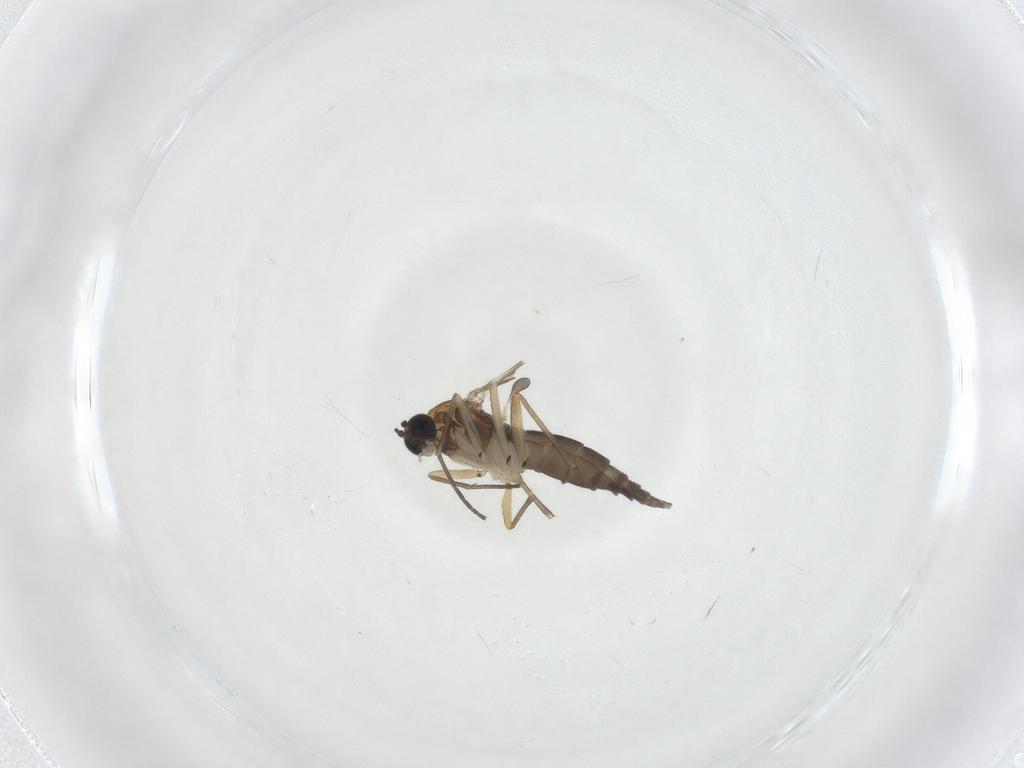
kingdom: Animalia
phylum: Arthropoda
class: Insecta
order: Diptera
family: Sciaridae
